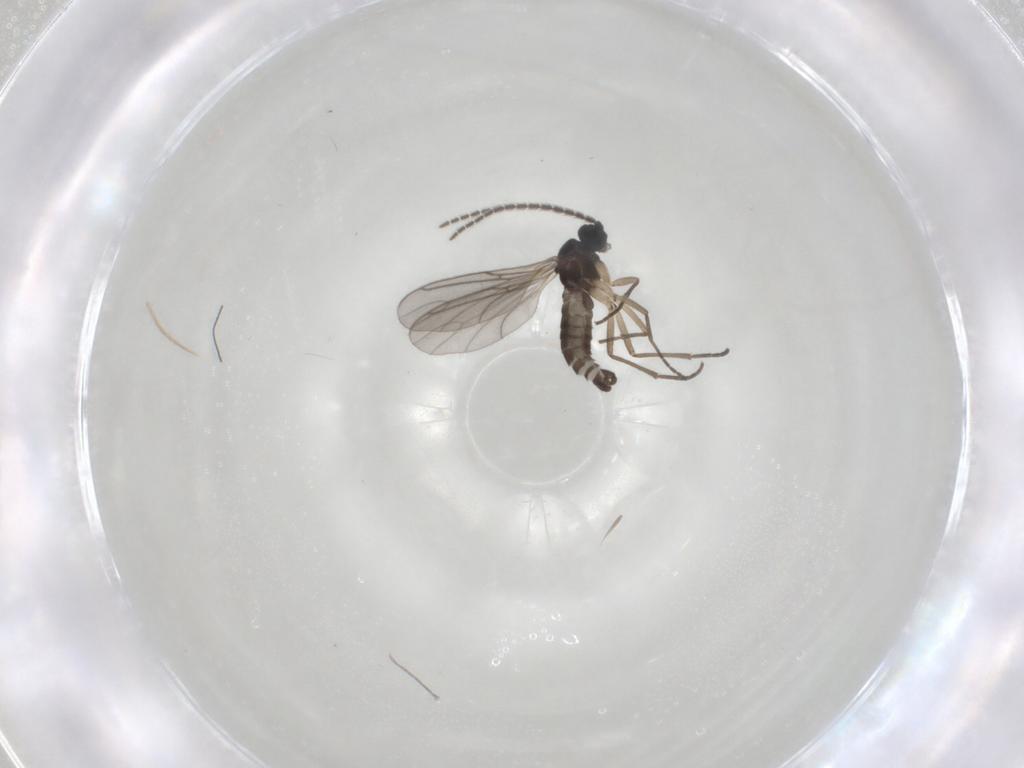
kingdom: Animalia
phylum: Arthropoda
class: Insecta
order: Diptera
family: Sciaridae
